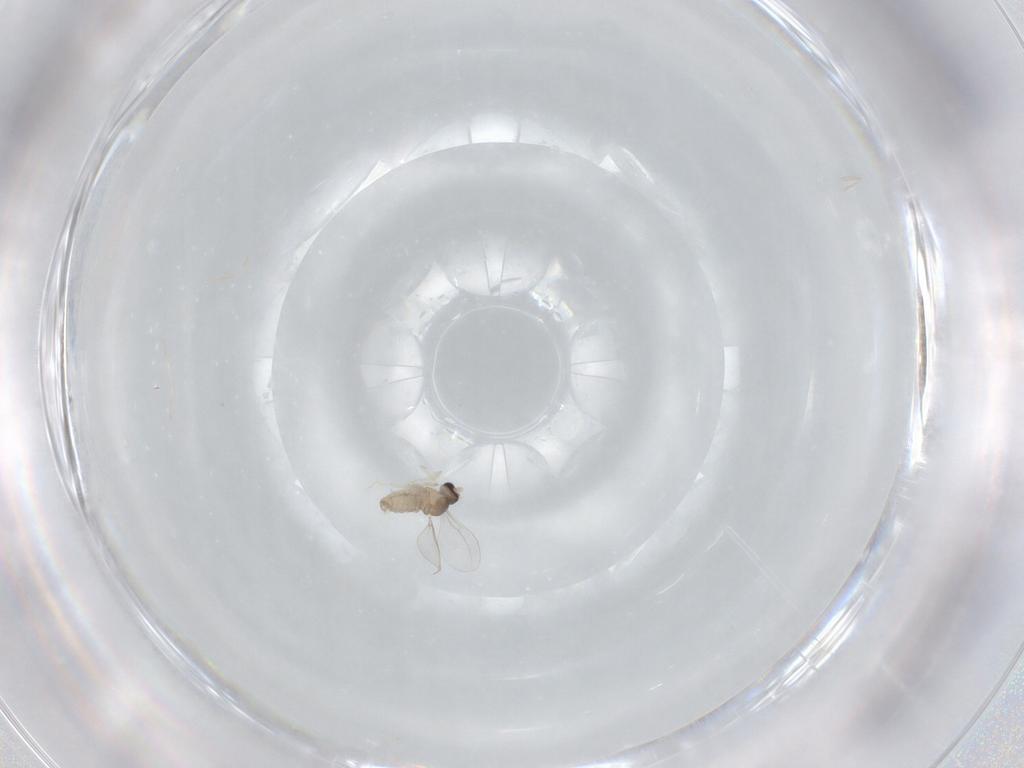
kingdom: Animalia
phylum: Arthropoda
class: Insecta
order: Diptera
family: Cecidomyiidae
